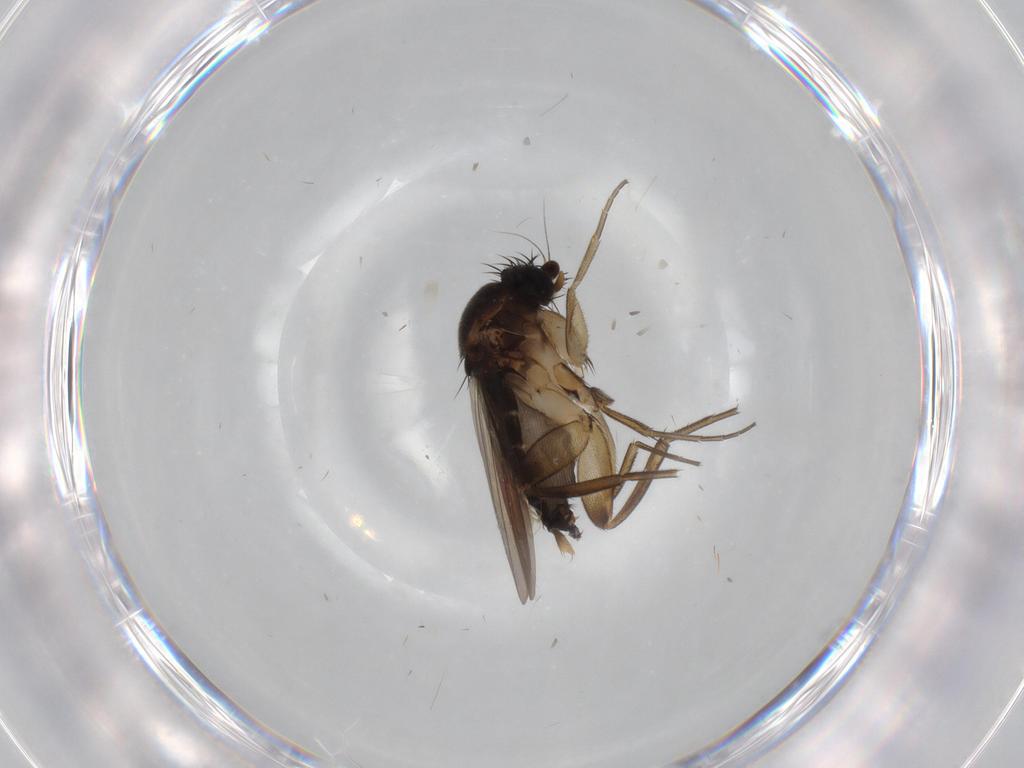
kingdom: Animalia
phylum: Arthropoda
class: Insecta
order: Diptera
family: Phoridae
